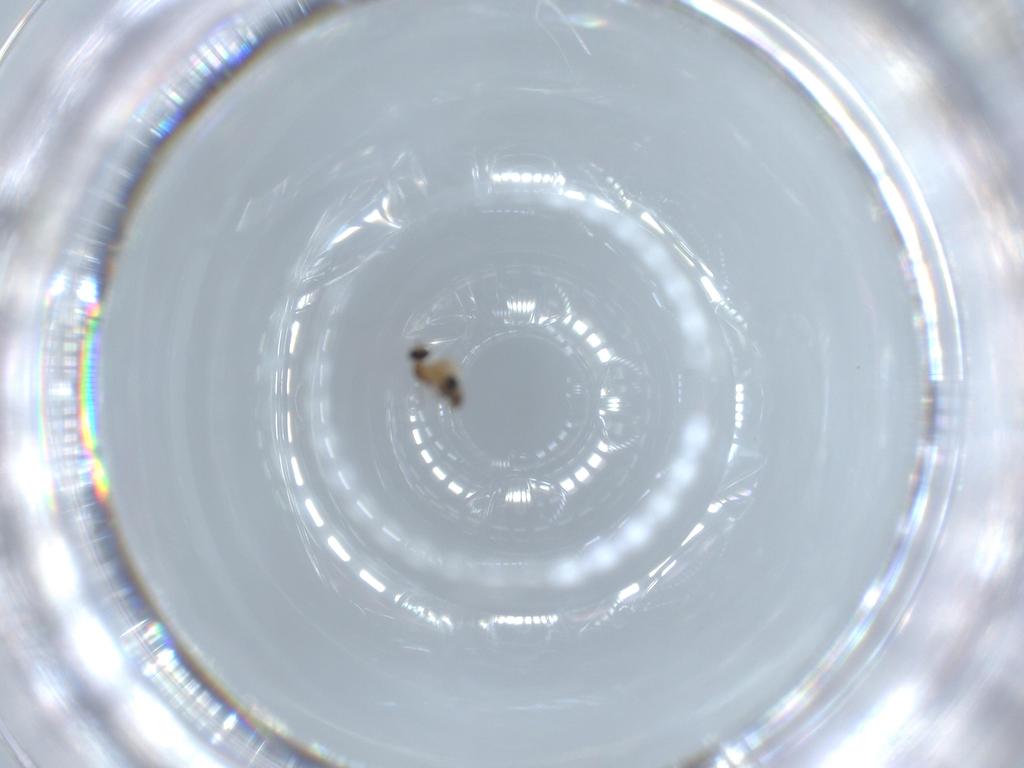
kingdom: Animalia
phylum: Arthropoda
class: Insecta
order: Diptera
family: Cecidomyiidae
